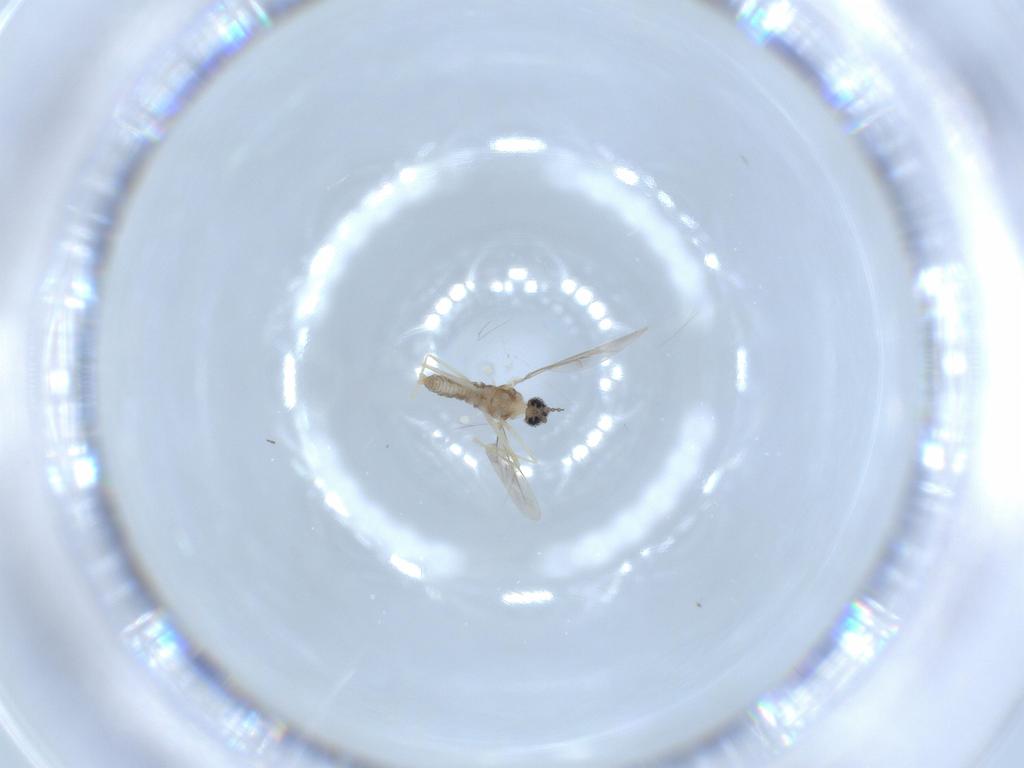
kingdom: Animalia
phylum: Arthropoda
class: Insecta
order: Diptera
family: Cecidomyiidae
